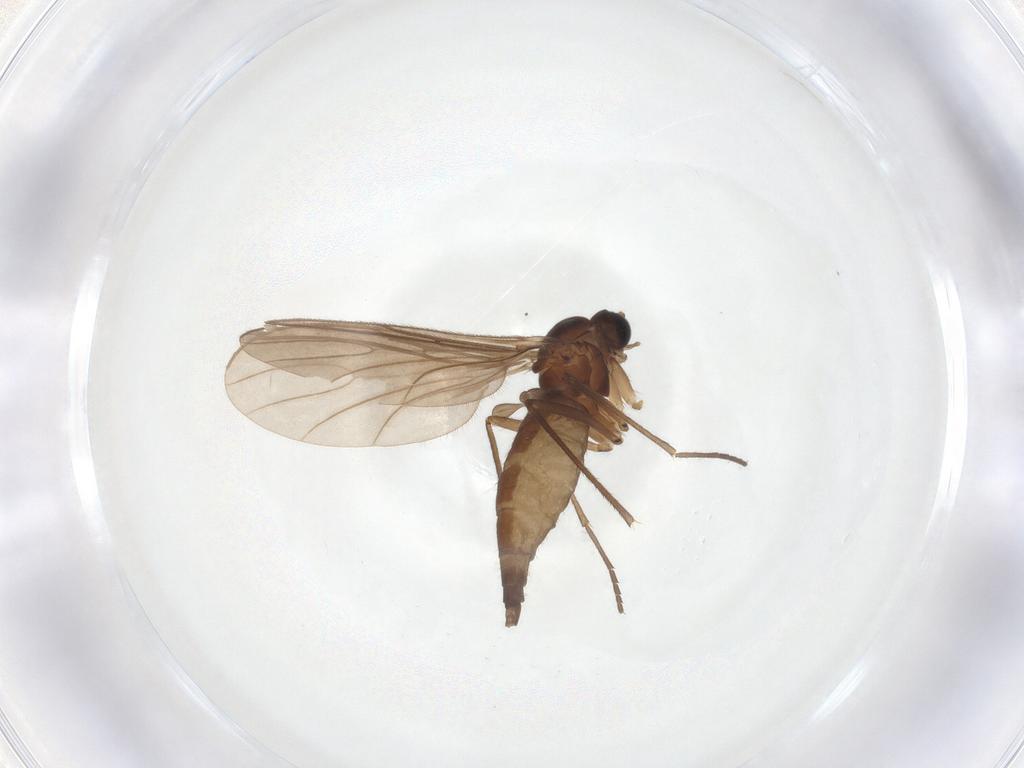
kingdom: Animalia
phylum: Arthropoda
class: Insecta
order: Diptera
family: Sciaridae
